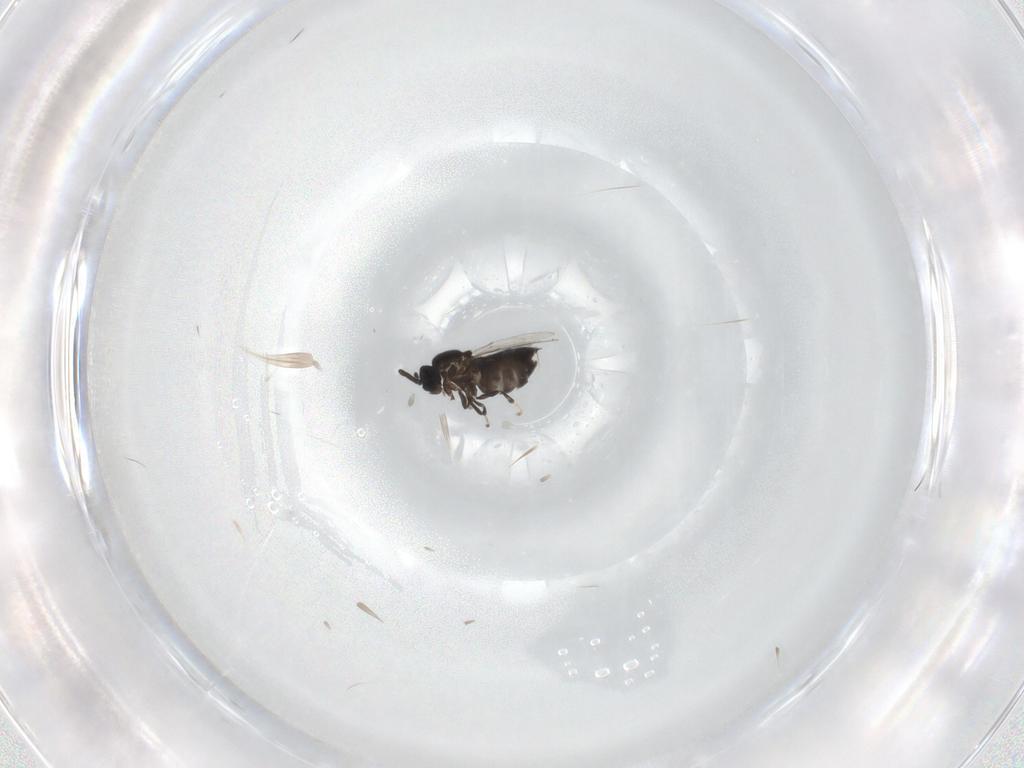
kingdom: Animalia
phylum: Arthropoda
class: Insecta
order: Diptera
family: Scatopsidae
